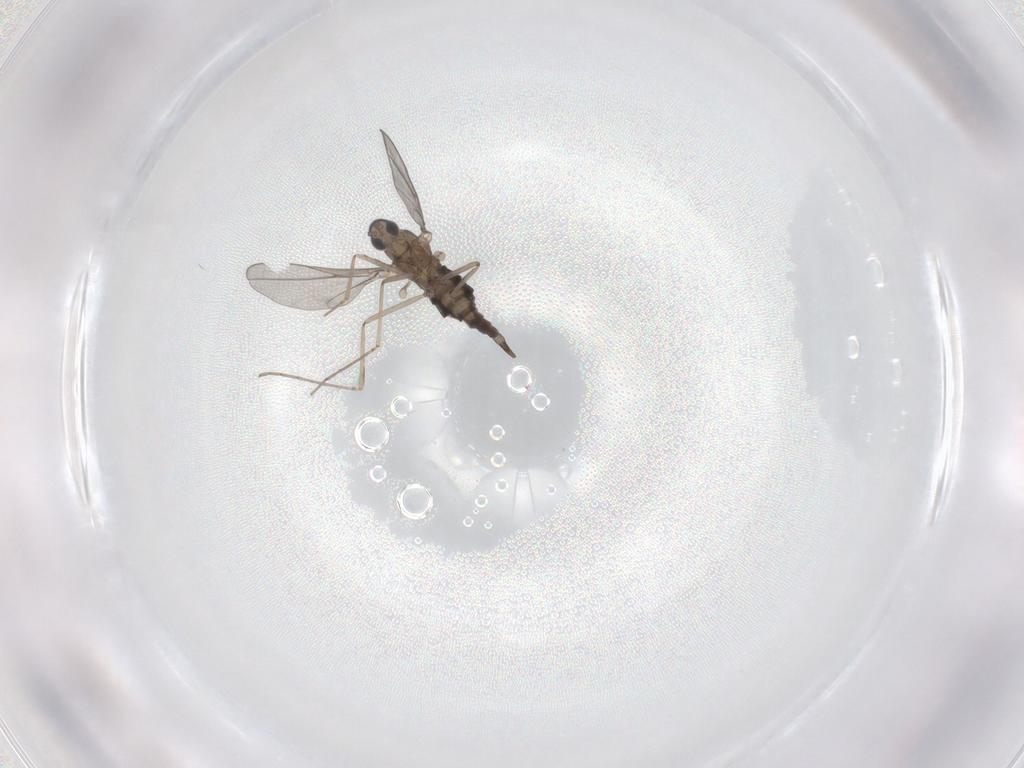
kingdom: Animalia
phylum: Arthropoda
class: Insecta
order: Diptera
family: Cecidomyiidae
